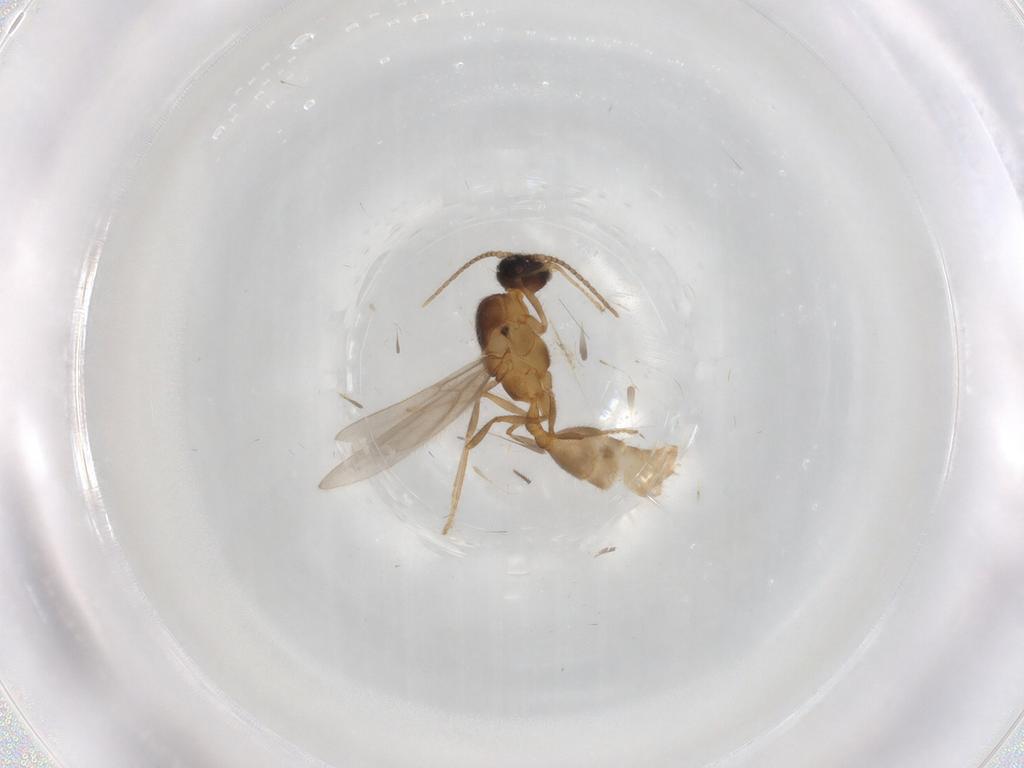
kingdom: Animalia
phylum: Arthropoda
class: Insecta
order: Hymenoptera
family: Formicidae
